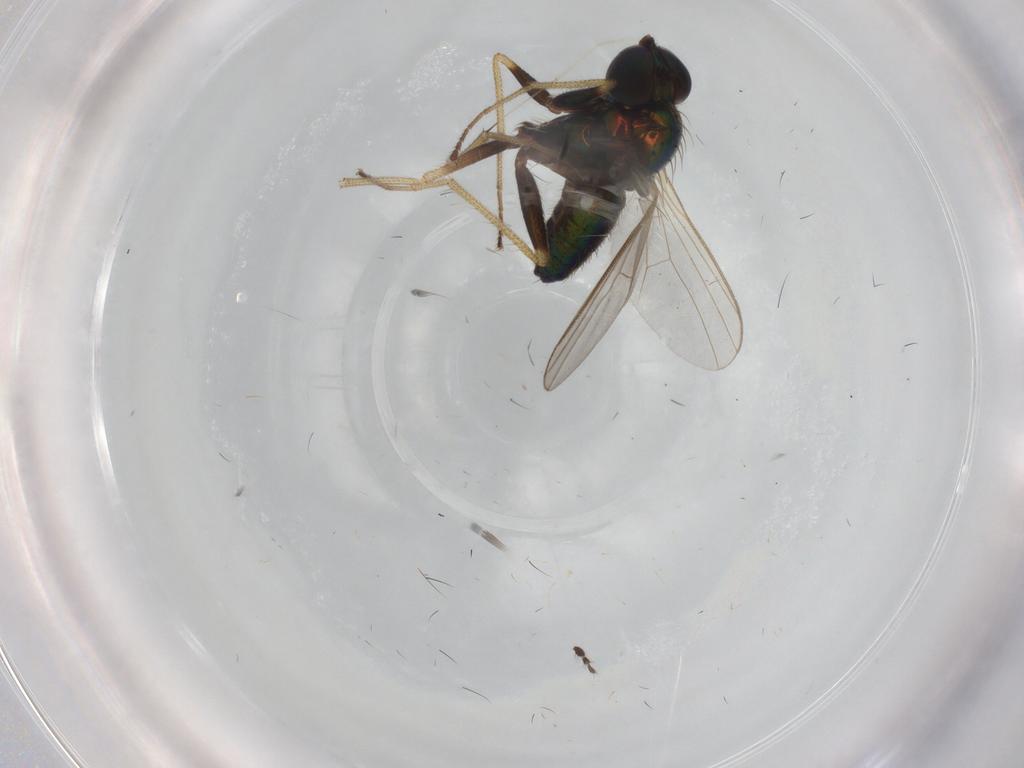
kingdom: Animalia
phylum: Arthropoda
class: Insecta
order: Diptera
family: Dolichopodidae
